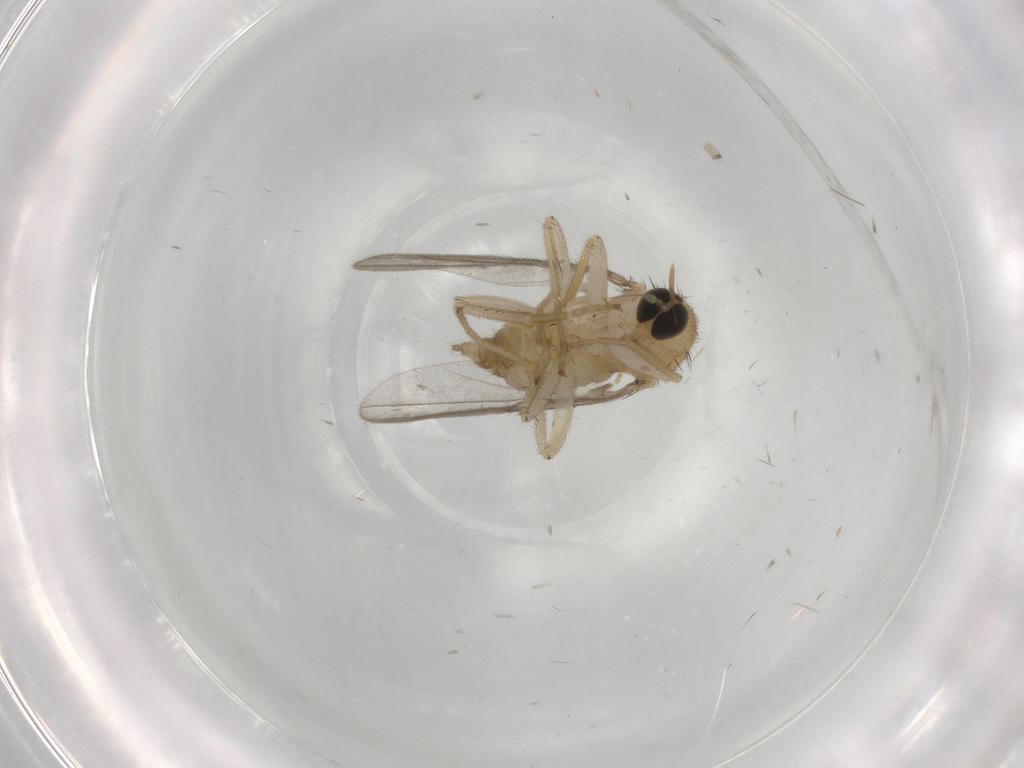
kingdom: Animalia
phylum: Arthropoda
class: Insecta
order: Diptera
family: Hybotidae
